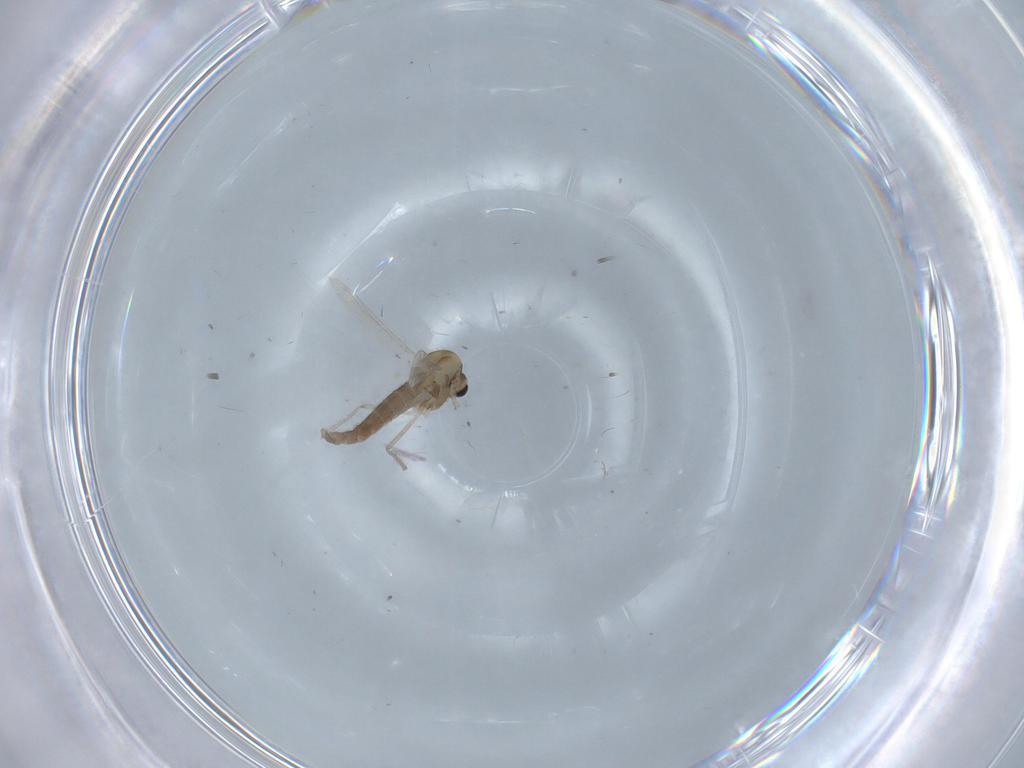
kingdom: Animalia
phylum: Arthropoda
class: Insecta
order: Diptera
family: Chironomidae
